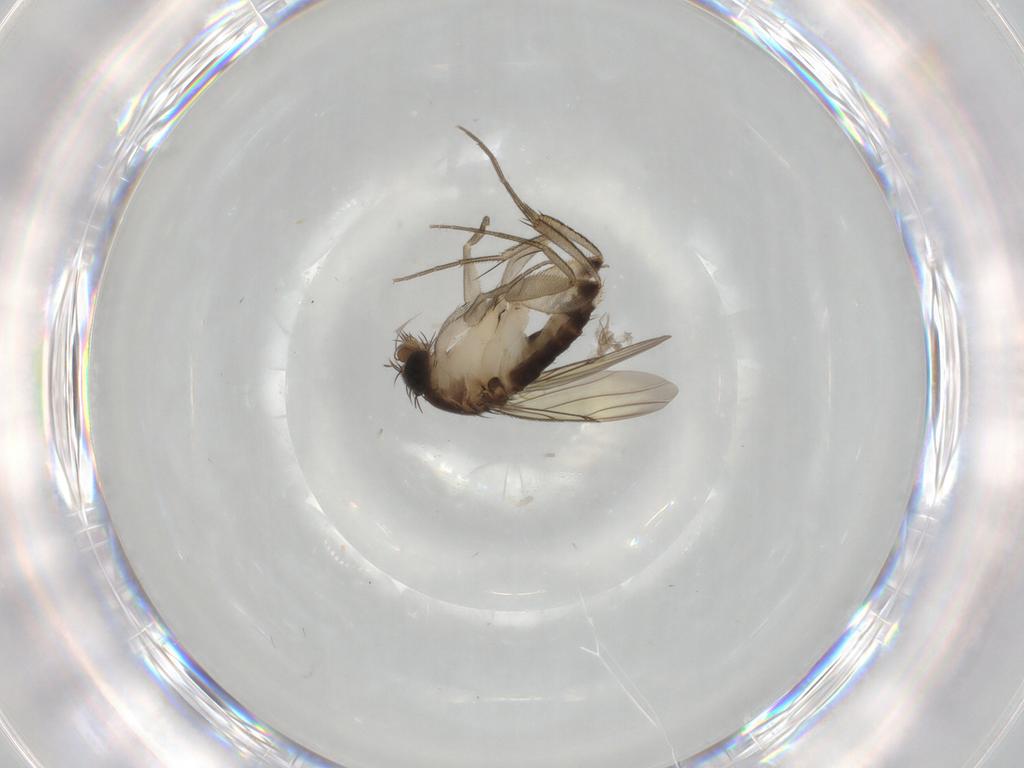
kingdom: Animalia
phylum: Arthropoda
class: Insecta
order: Diptera
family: Phoridae
